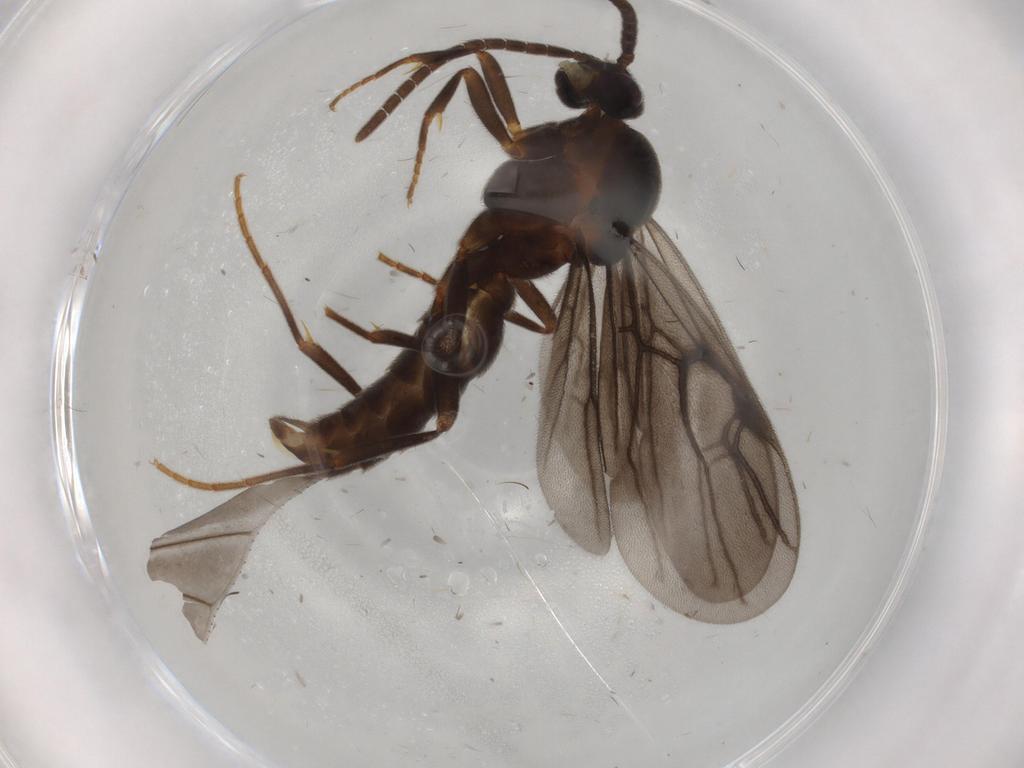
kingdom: Animalia
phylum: Arthropoda
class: Insecta
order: Hymenoptera
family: Formicidae
